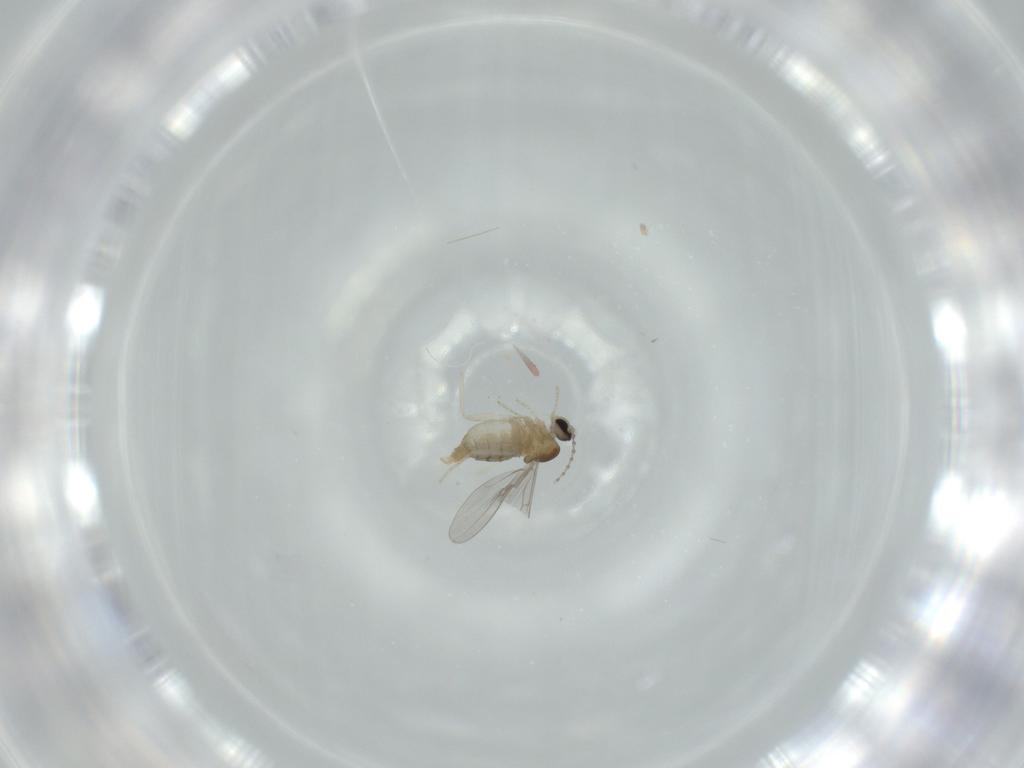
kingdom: Animalia
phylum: Arthropoda
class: Insecta
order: Diptera
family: Cecidomyiidae
